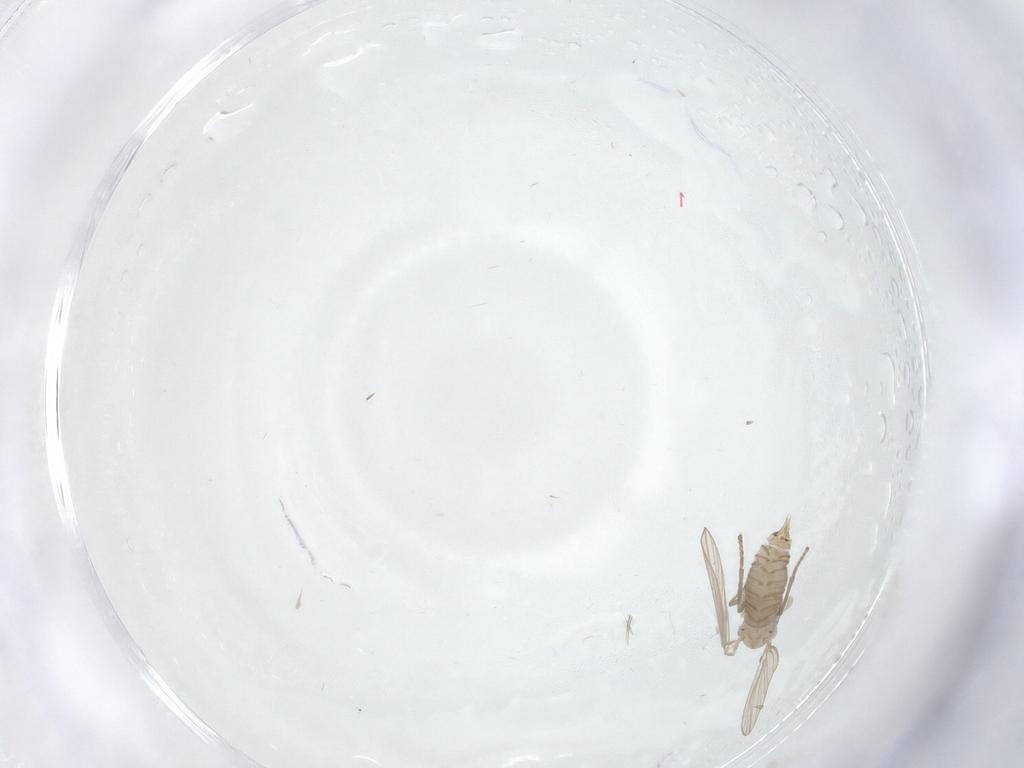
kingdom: Animalia
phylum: Arthropoda
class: Insecta
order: Diptera
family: Psychodidae
